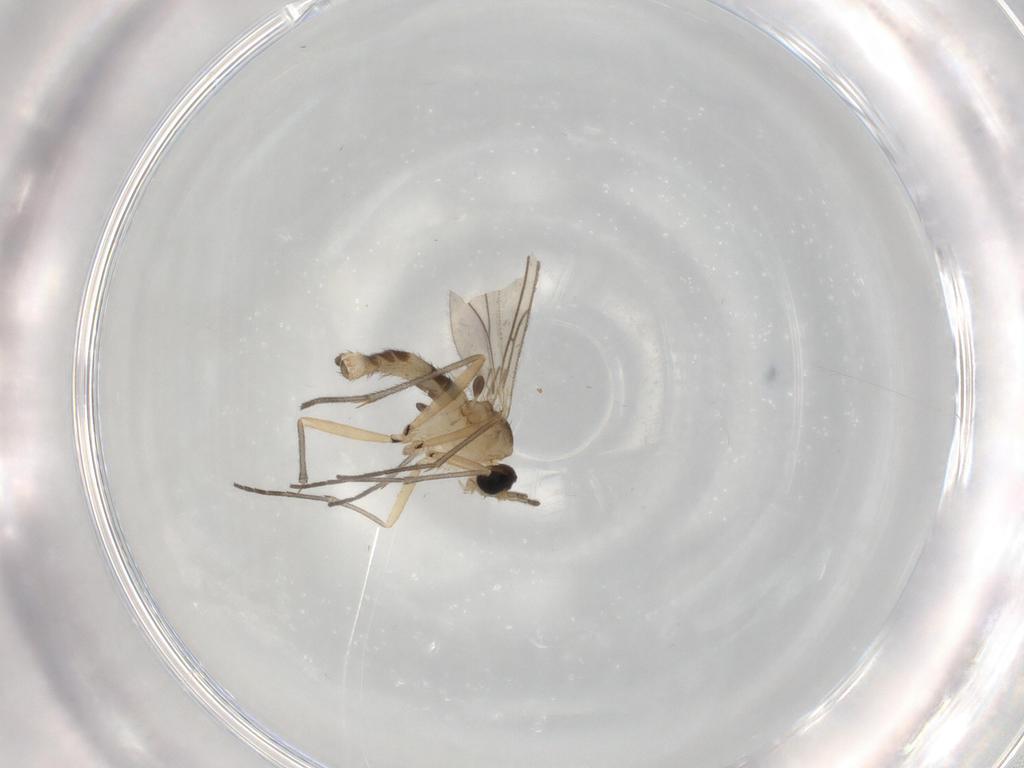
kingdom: Animalia
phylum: Arthropoda
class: Insecta
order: Diptera
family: Sciaridae
